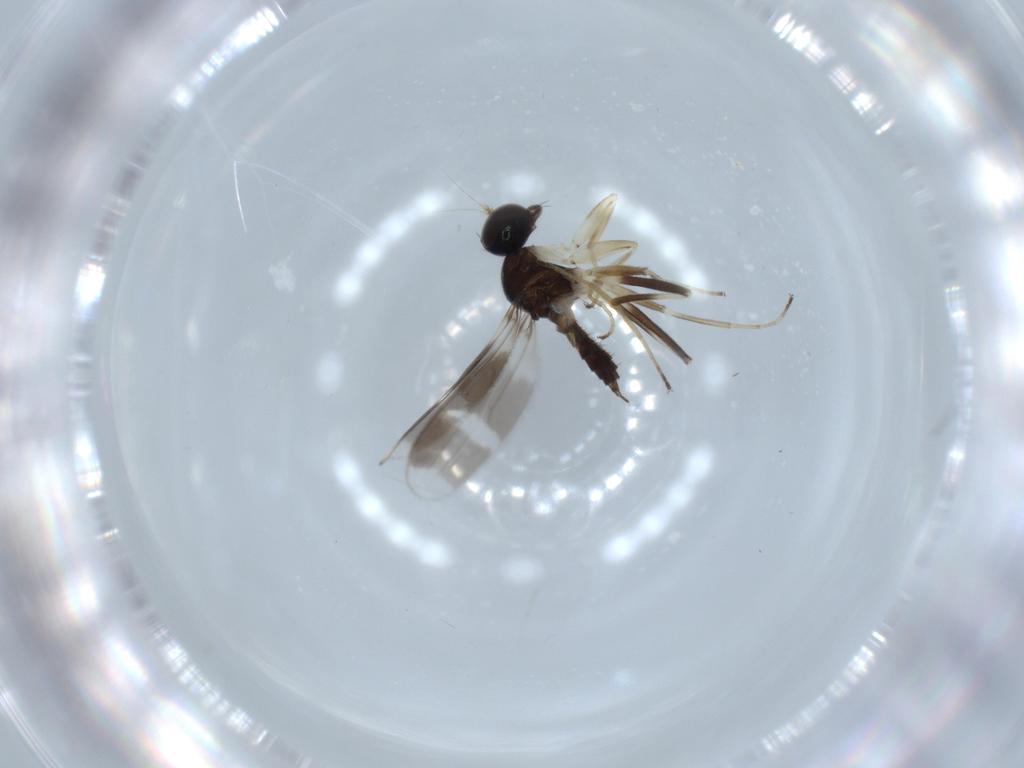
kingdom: Animalia
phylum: Arthropoda
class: Insecta
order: Diptera
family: Hybotidae
